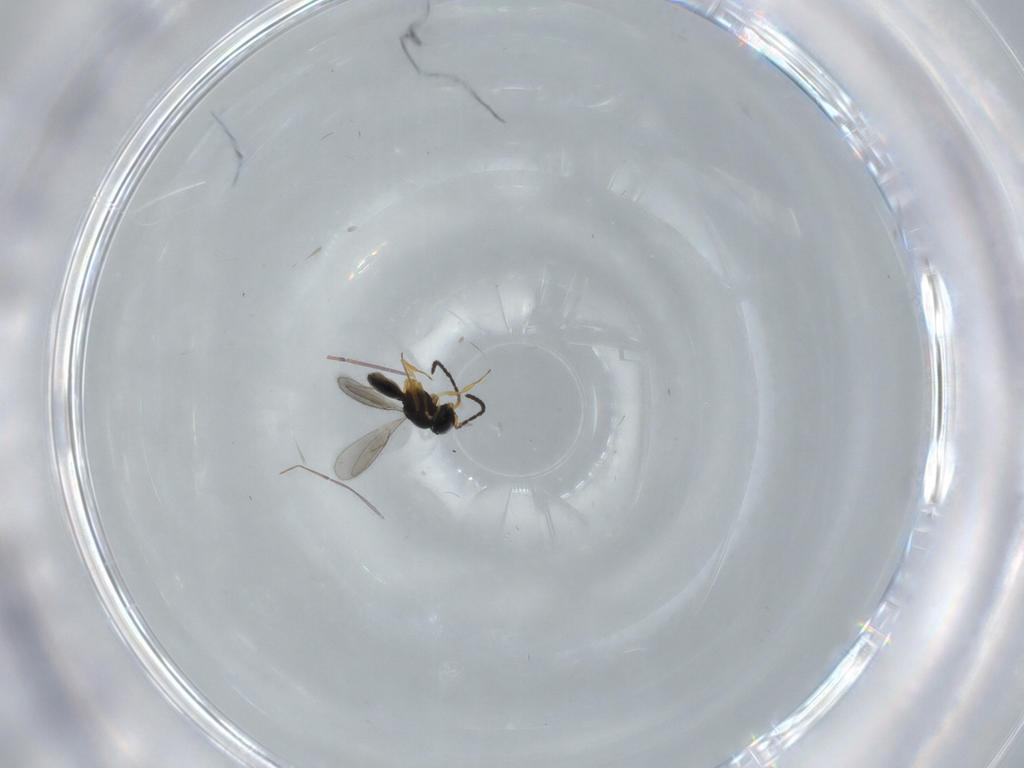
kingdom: Animalia
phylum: Arthropoda
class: Insecta
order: Hymenoptera
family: Scelionidae
